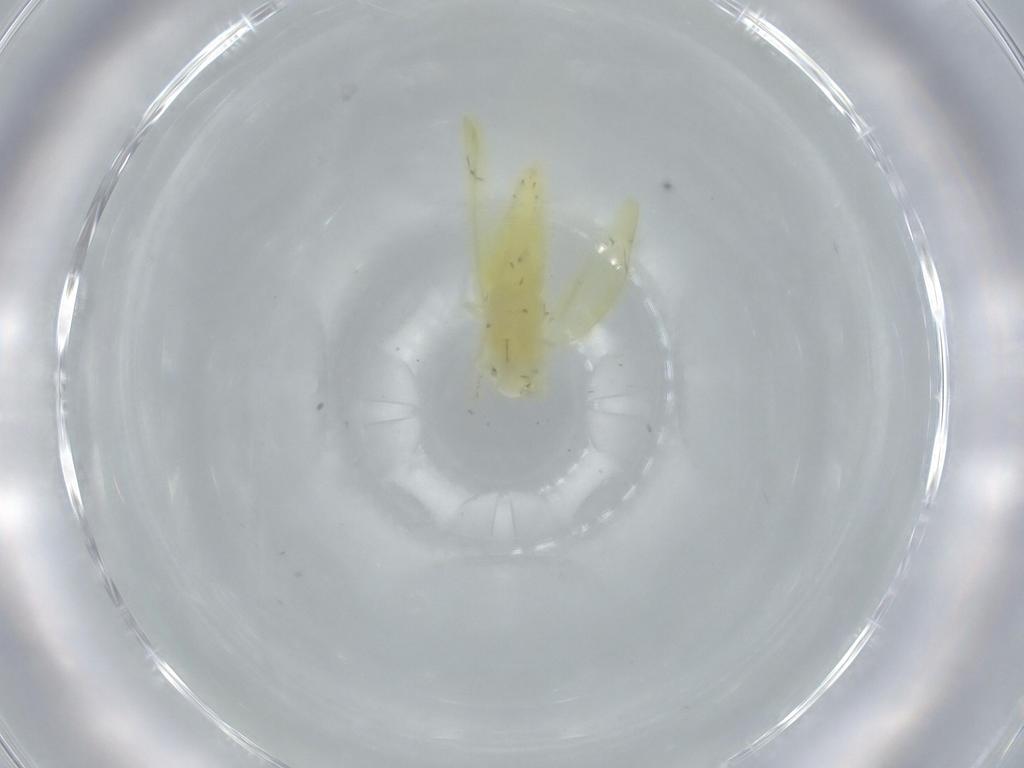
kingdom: Animalia
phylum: Arthropoda
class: Insecta
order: Hemiptera
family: Cicadellidae
